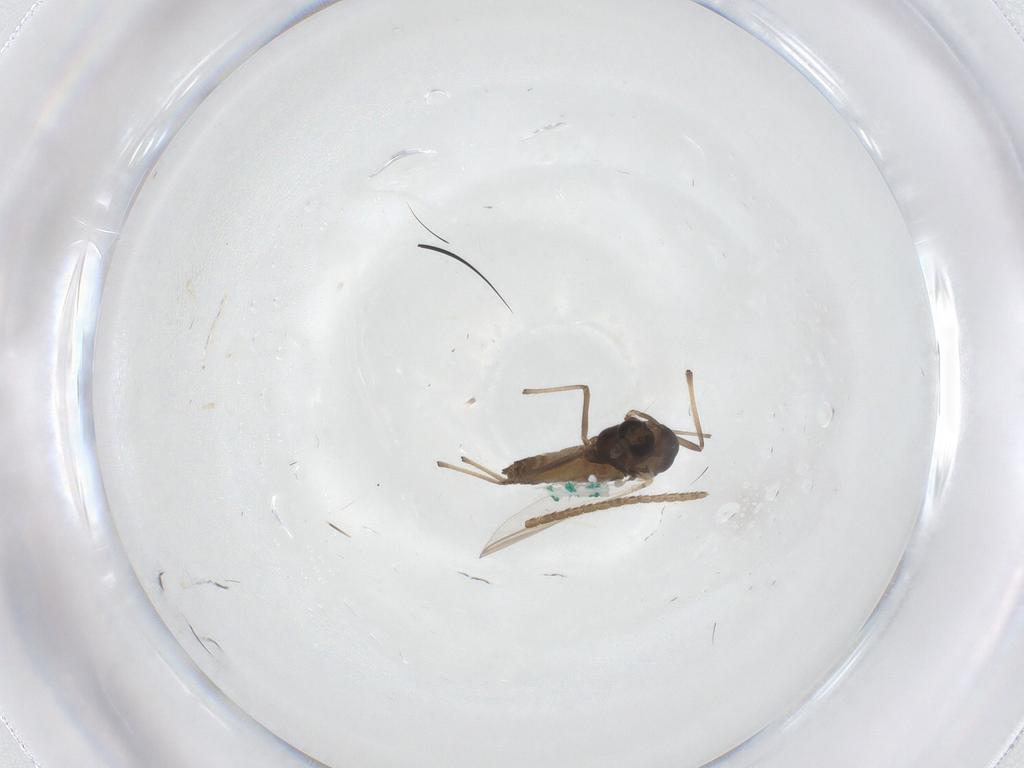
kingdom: Animalia
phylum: Arthropoda
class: Insecta
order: Diptera
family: Chironomidae
